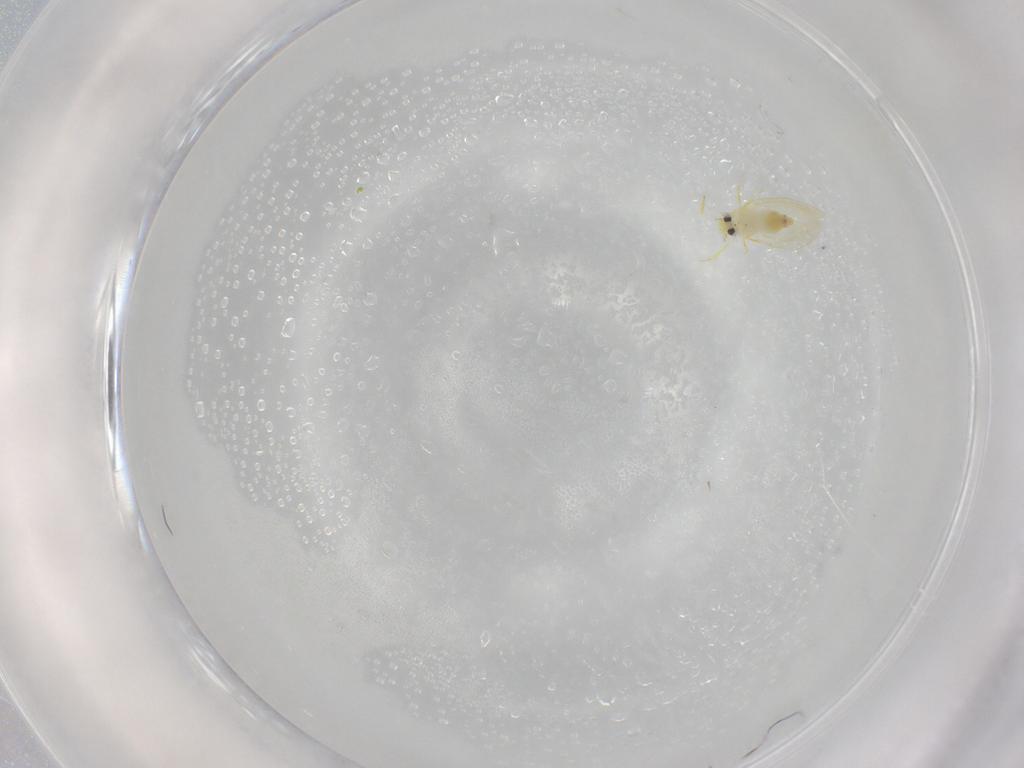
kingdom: Animalia
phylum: Arthropoda
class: Insecta
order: Hemiptera
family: Aleyrodidae
